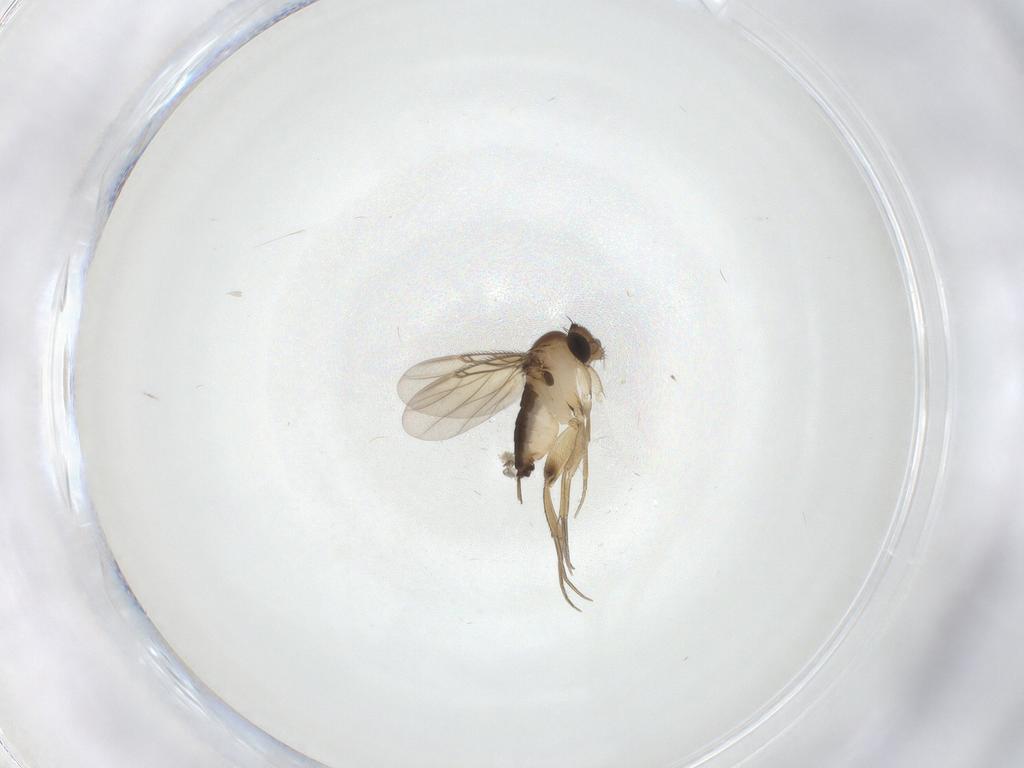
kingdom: Animalia
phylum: Arthropoda
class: Insecta
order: Diptera
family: Phoridae
